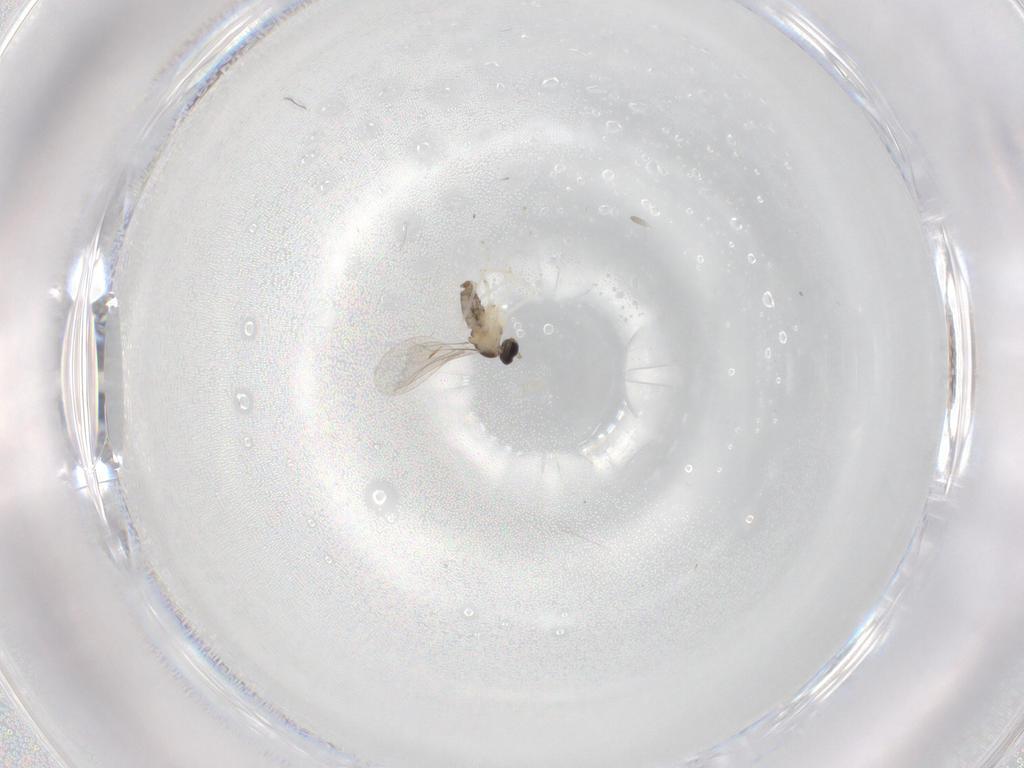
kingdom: Animalia
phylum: Arthropoda
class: Insecta
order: Diptera
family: Cecidomyiidae
